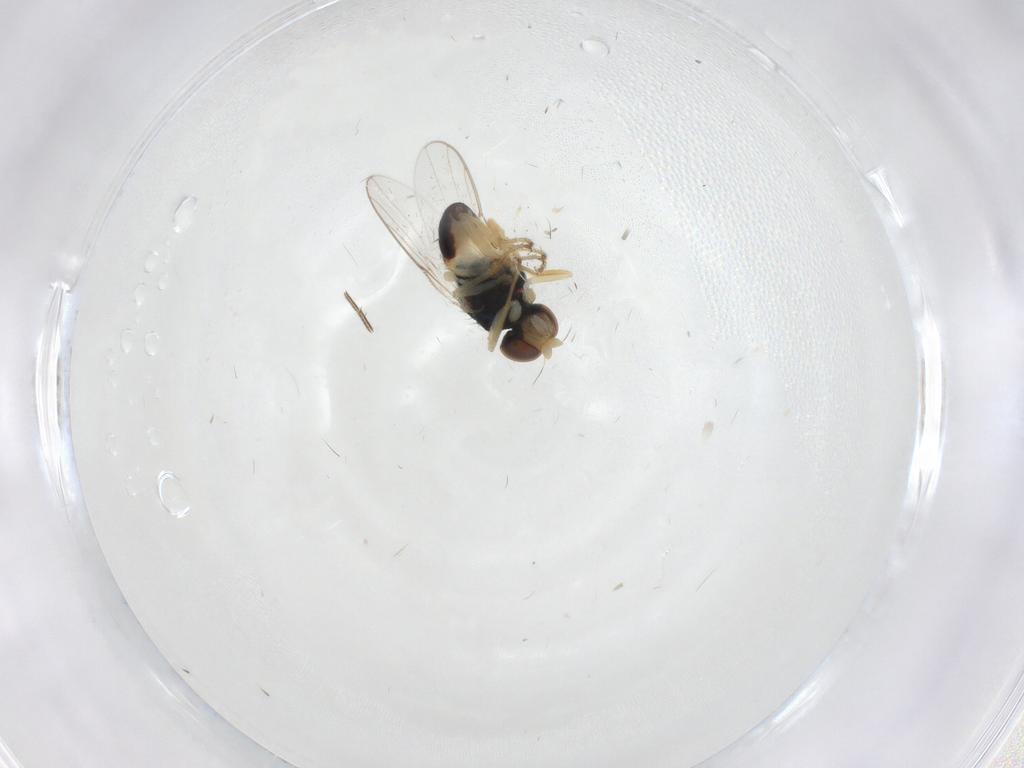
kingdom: Animalia
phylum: Arthropoda
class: Insecta
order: Diptera
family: Chloropidae
